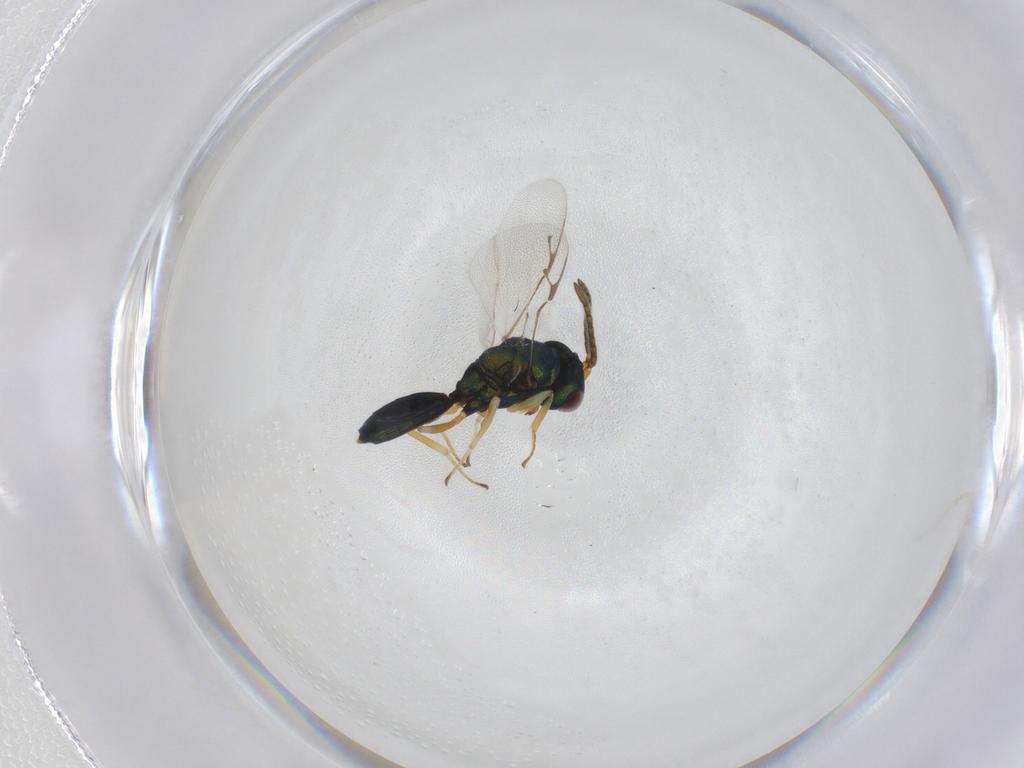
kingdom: Animalia
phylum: Arthropoda
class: Insecta
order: Hymenoptera
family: Pteromalidae
